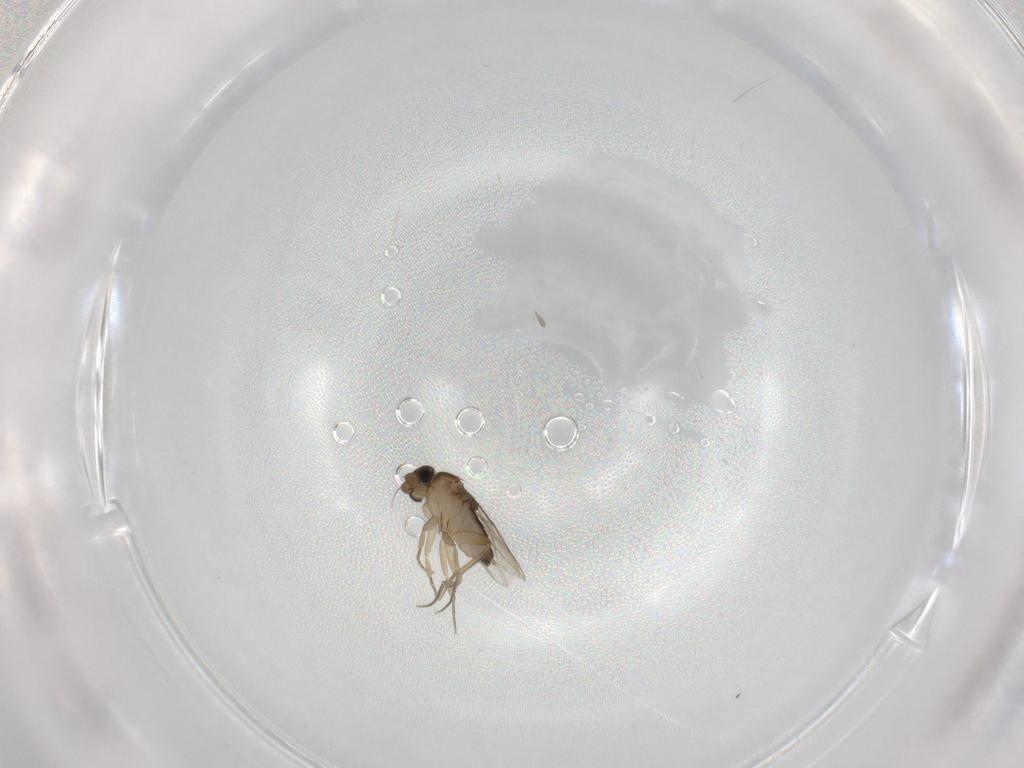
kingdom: Animalia
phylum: Arthropoda
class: Insecta
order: Diptera
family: Phoridae
